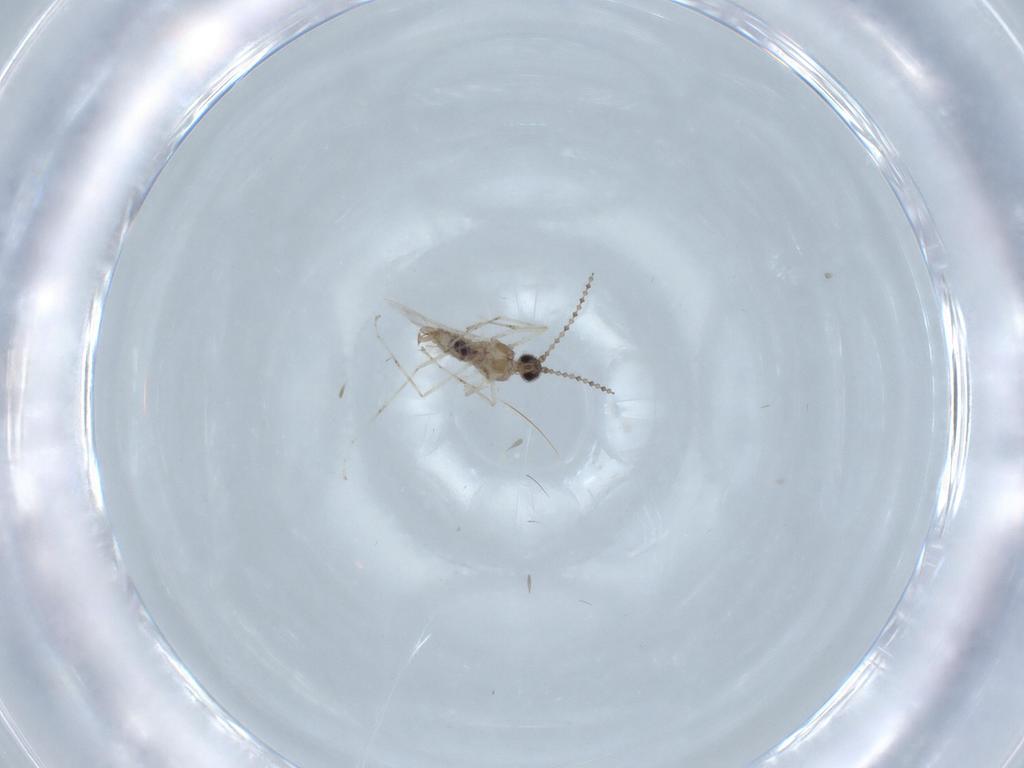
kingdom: Animalia
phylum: Arthropoda
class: Insecta
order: Diptera
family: Cecidomyiidae
